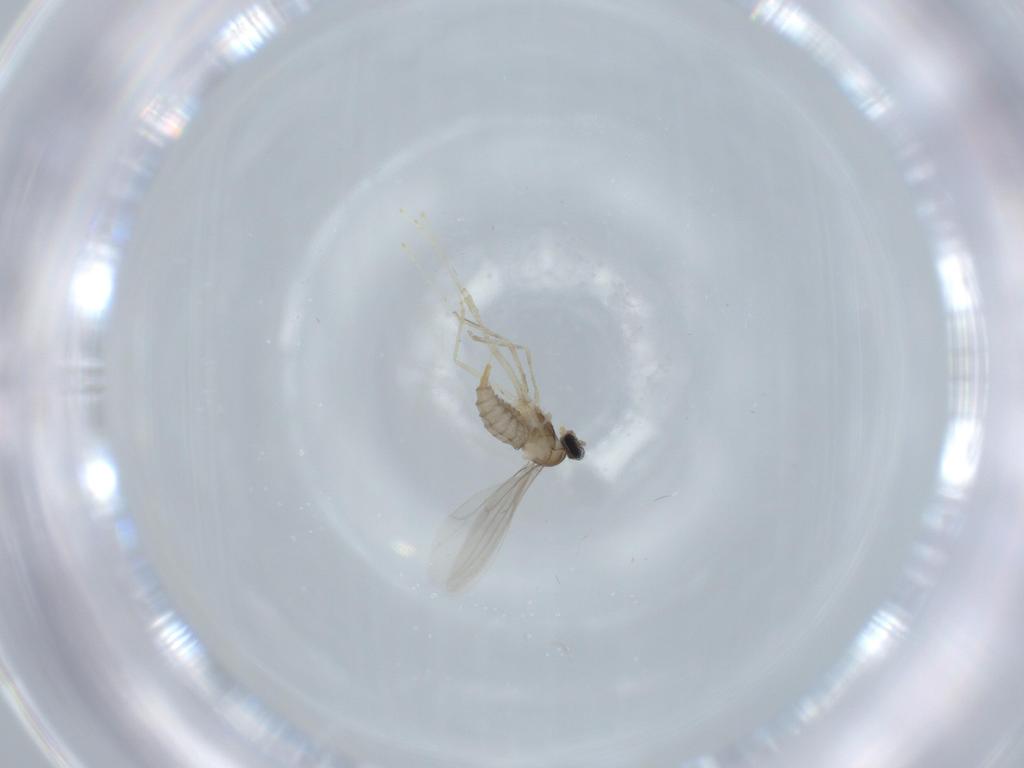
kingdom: Animalia
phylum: Arthropoda
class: Insecta
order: Diptera
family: Cecidomyiidae
